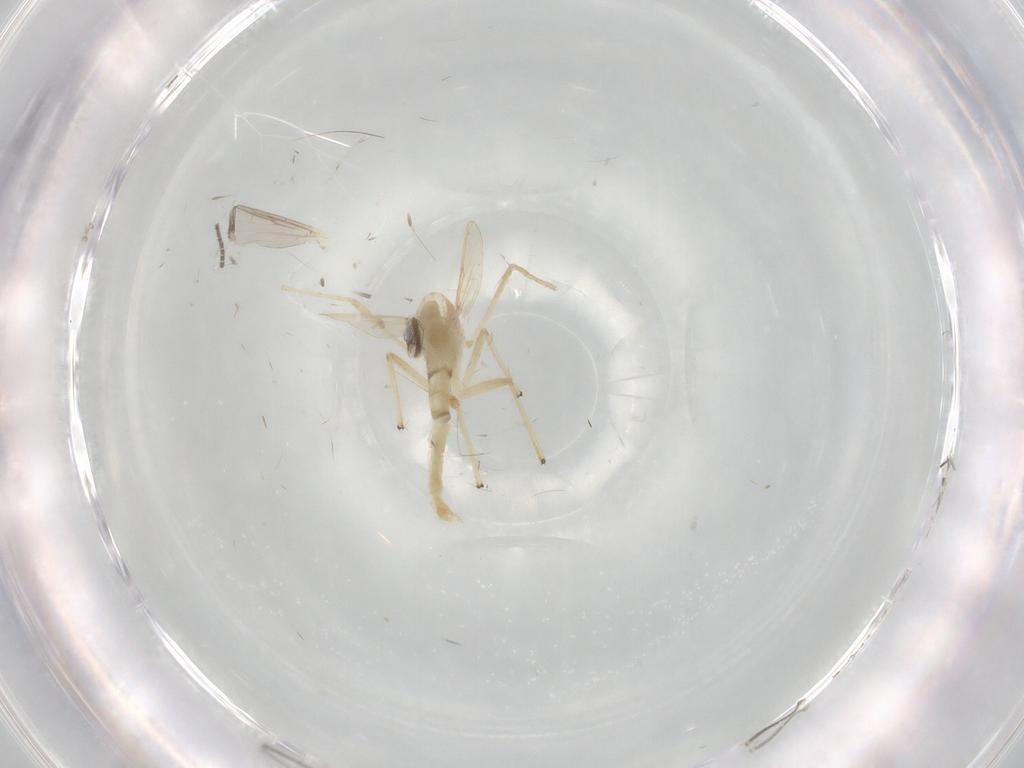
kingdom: Animalia
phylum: Arthropoda
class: Insecta
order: Diptera
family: Chironomidae
